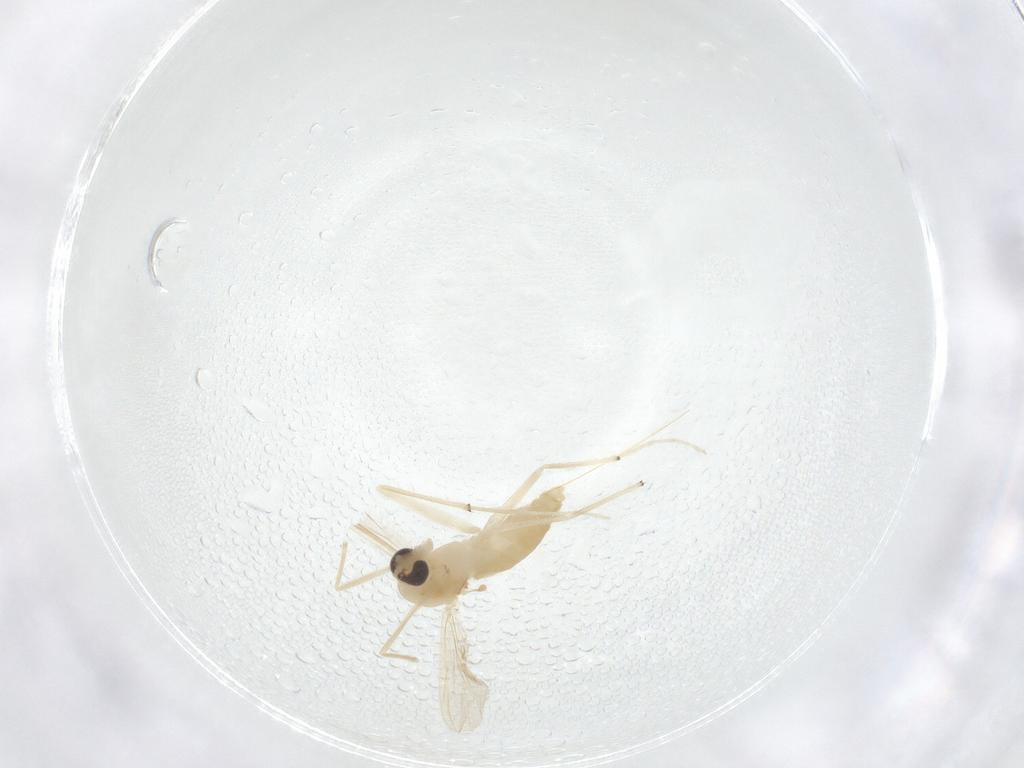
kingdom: Animalia
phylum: Arthropoda
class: Insecta
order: Diptera
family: Chironomidae
